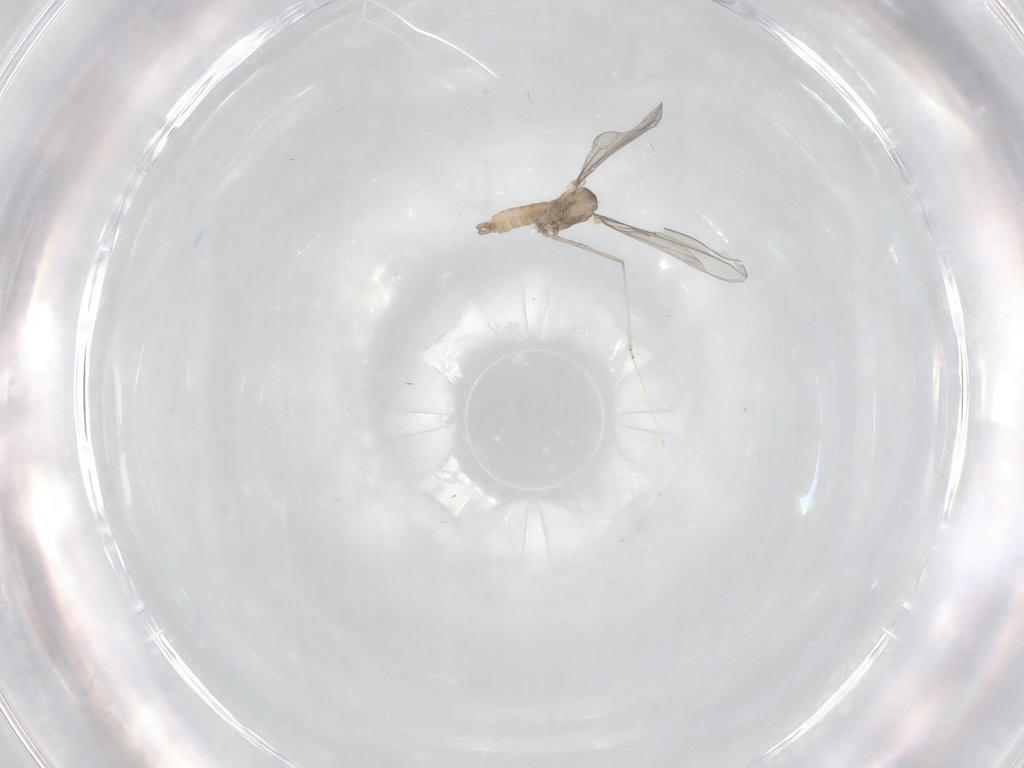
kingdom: Animalia
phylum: Arthropoda
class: Insecta
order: Diptera
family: Cecidomyiidae
